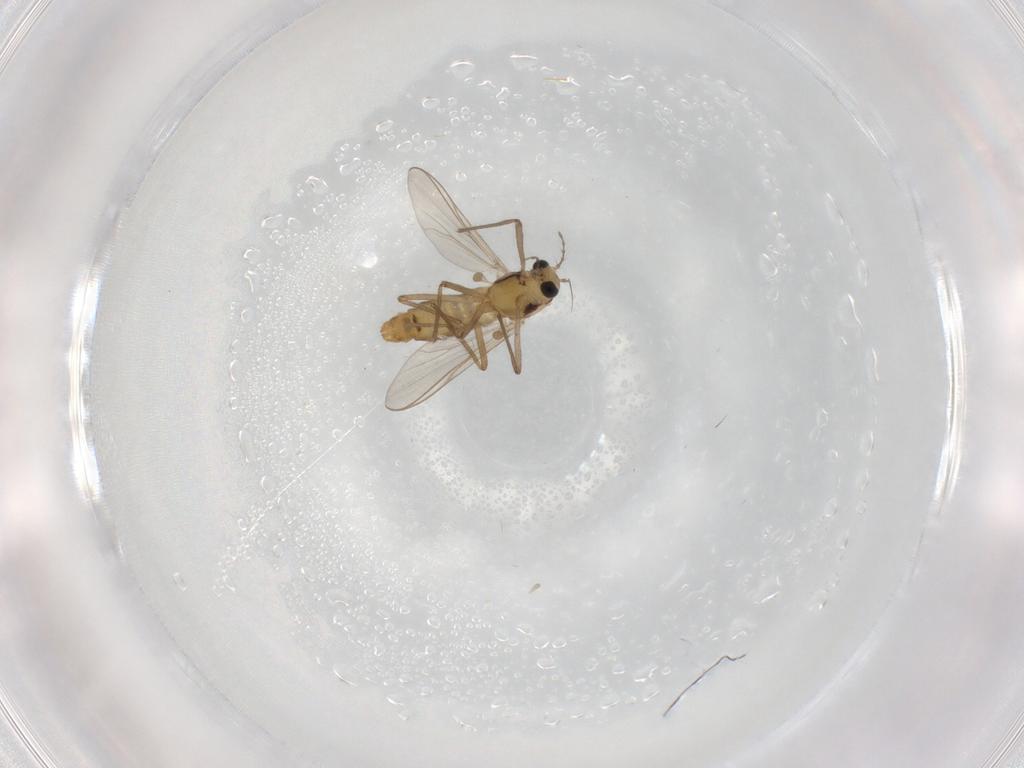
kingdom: Animalia
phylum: Arthropoda
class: Insecta
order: Diptera
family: Chironomidae
